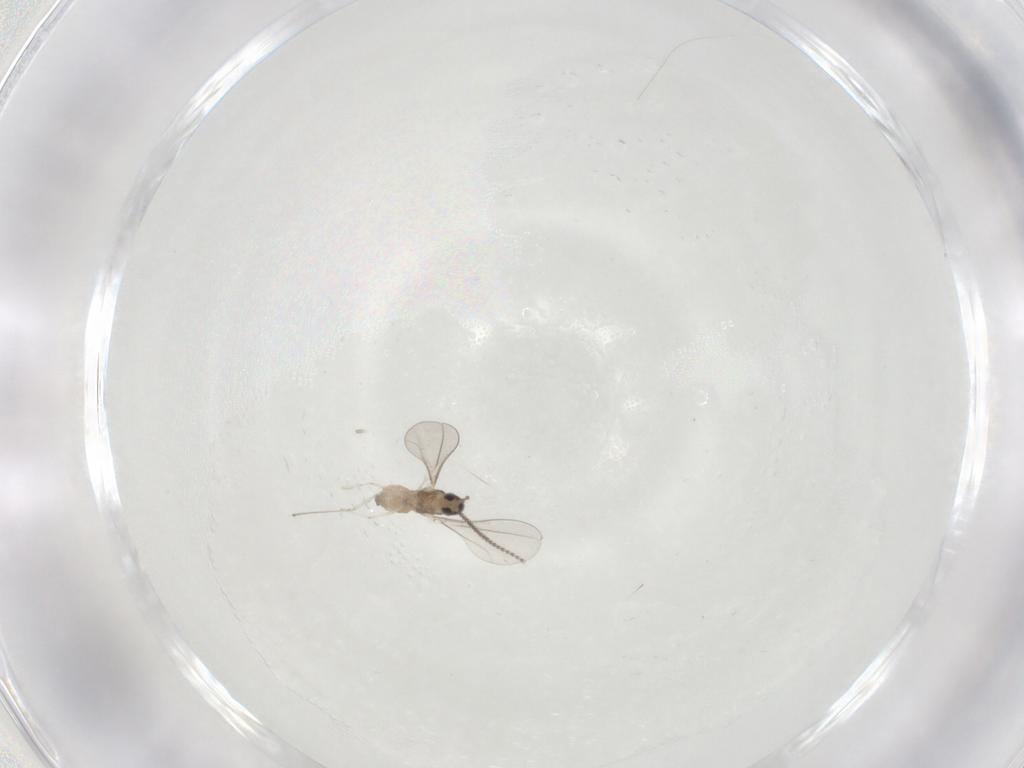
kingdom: Animalia
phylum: Arthropoda
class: Insecta
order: Diptera
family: Cecidomyiidae
